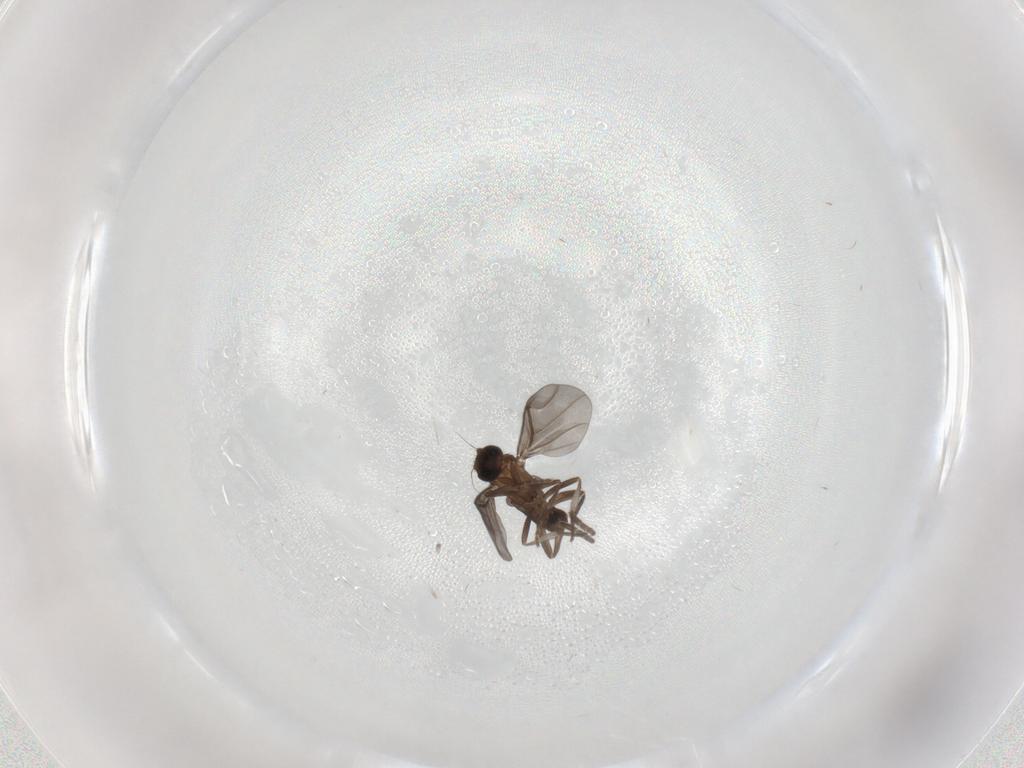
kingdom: Animalia
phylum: Arthropoda
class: Insecta
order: Diptera
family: Phoridae
